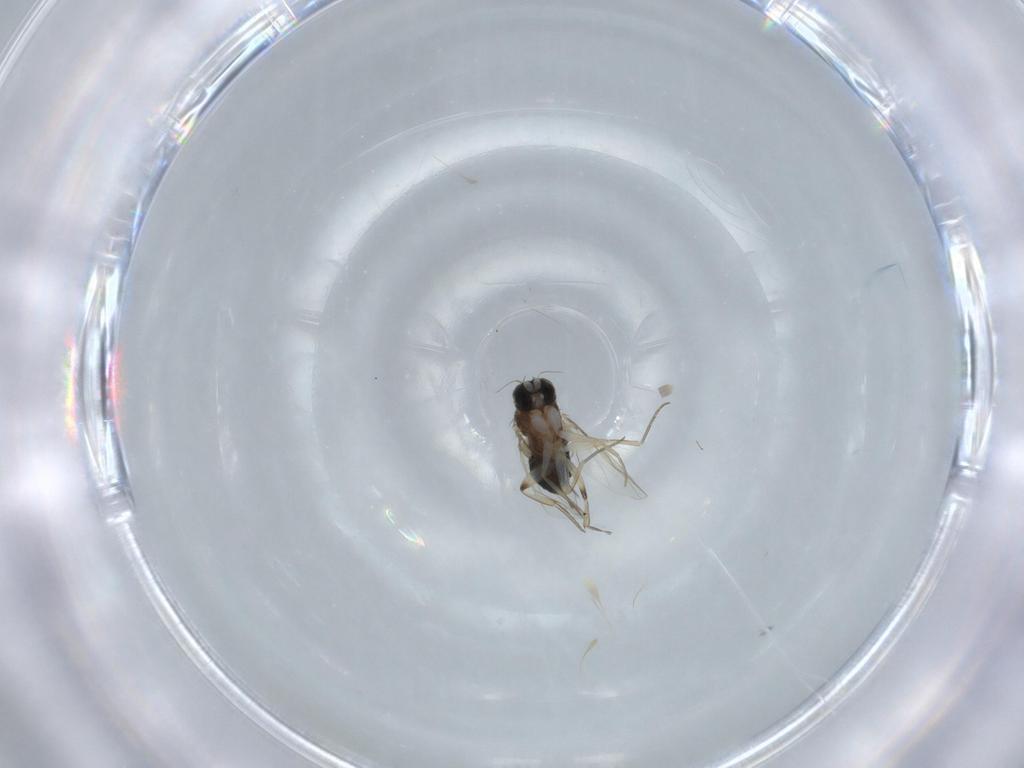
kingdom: Animalia
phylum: Arthropoda
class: Insecta
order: Diptera
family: Phoridae
